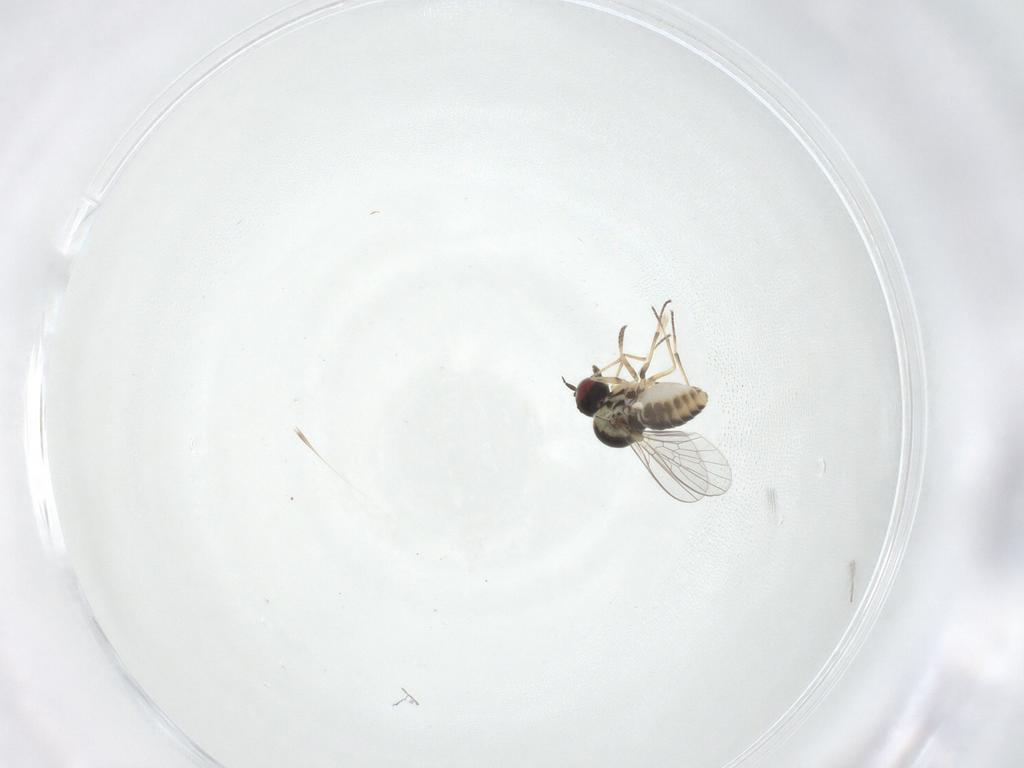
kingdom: Animalia
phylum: Arthropoda
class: Insecta
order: Diptera
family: Mythicomyiidae
